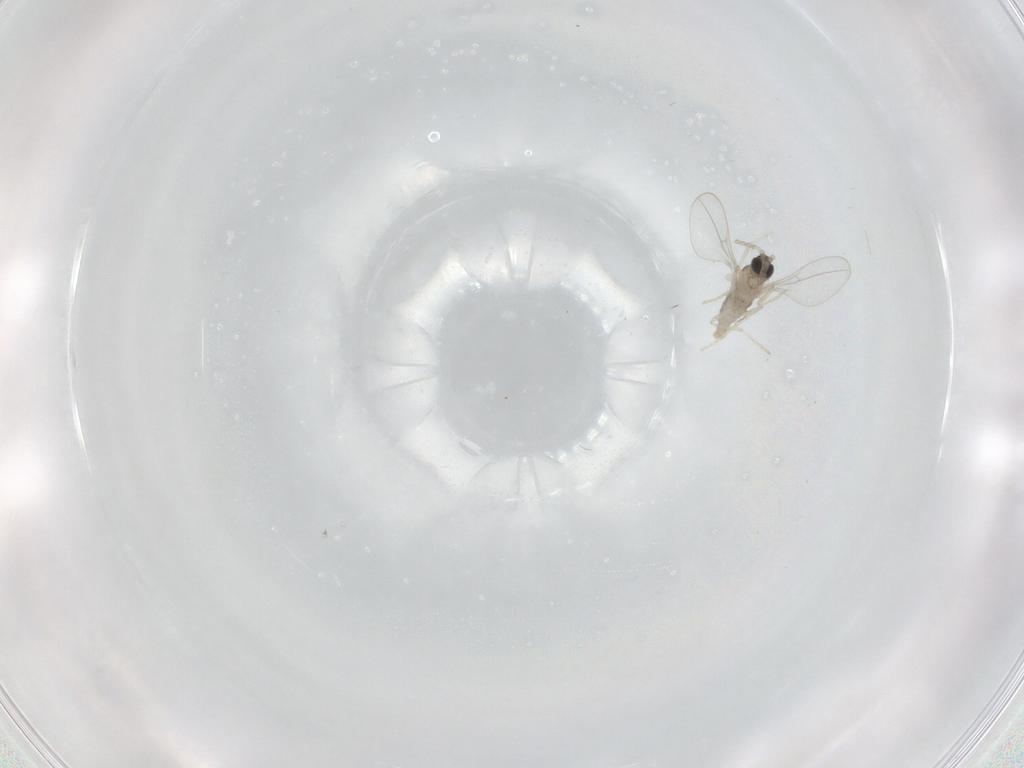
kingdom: Animalia
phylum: Arthropoda
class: Insecta
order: Diptera
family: Cecidomyiidae
